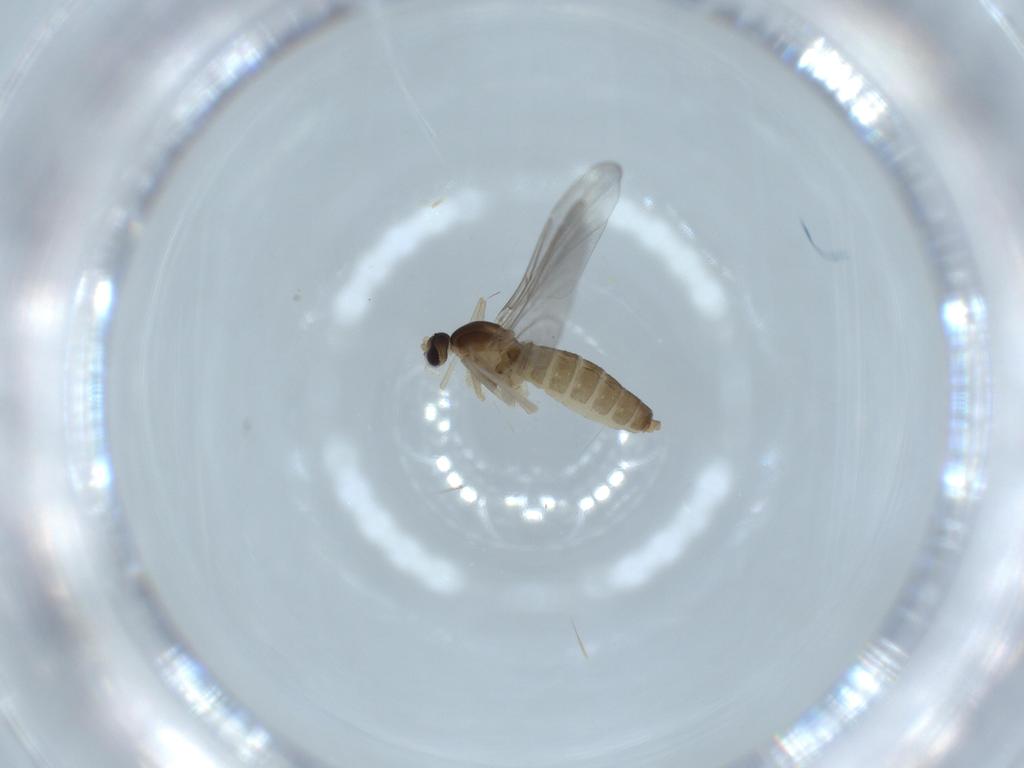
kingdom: Animalia
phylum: Arthropoda
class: Insecta
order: Diptera
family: Cecidomyiidae
